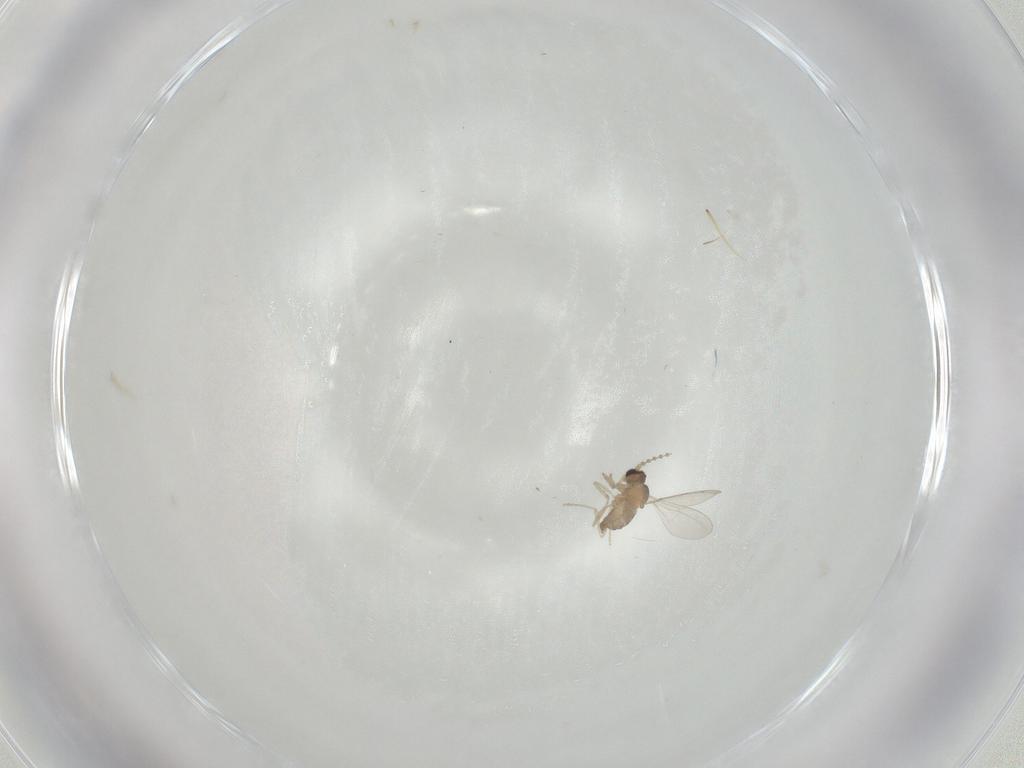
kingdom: Animalia
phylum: Arthropoda
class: Insecta
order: Diptera
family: Cecidomyiidae
